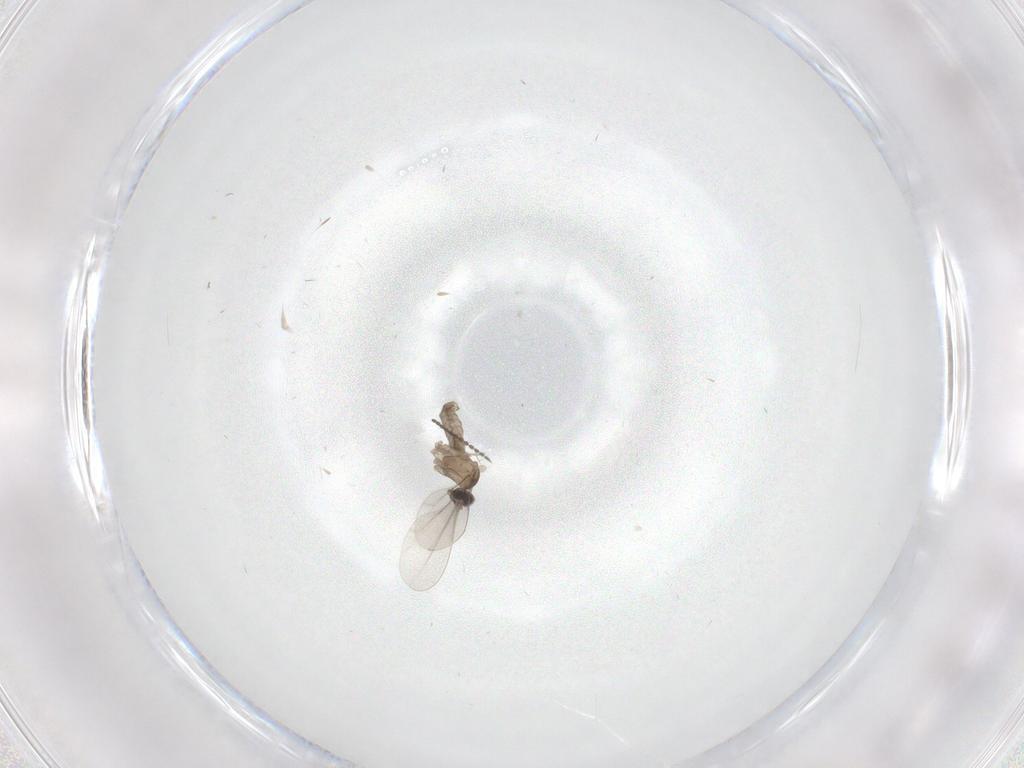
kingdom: Animalia
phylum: Arthropoda
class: Insecta
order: Diptera
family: Cecidomyiidae
